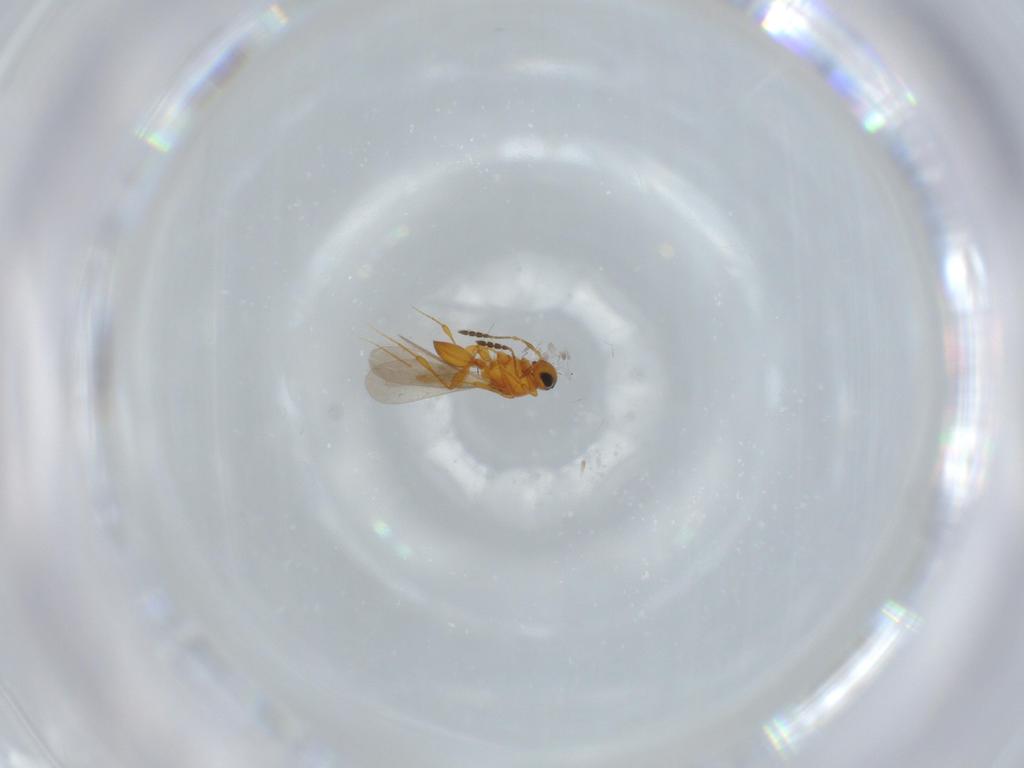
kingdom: Animalia
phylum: Arthropoda
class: Insecta
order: Hymenoptera
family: Platygastridae
